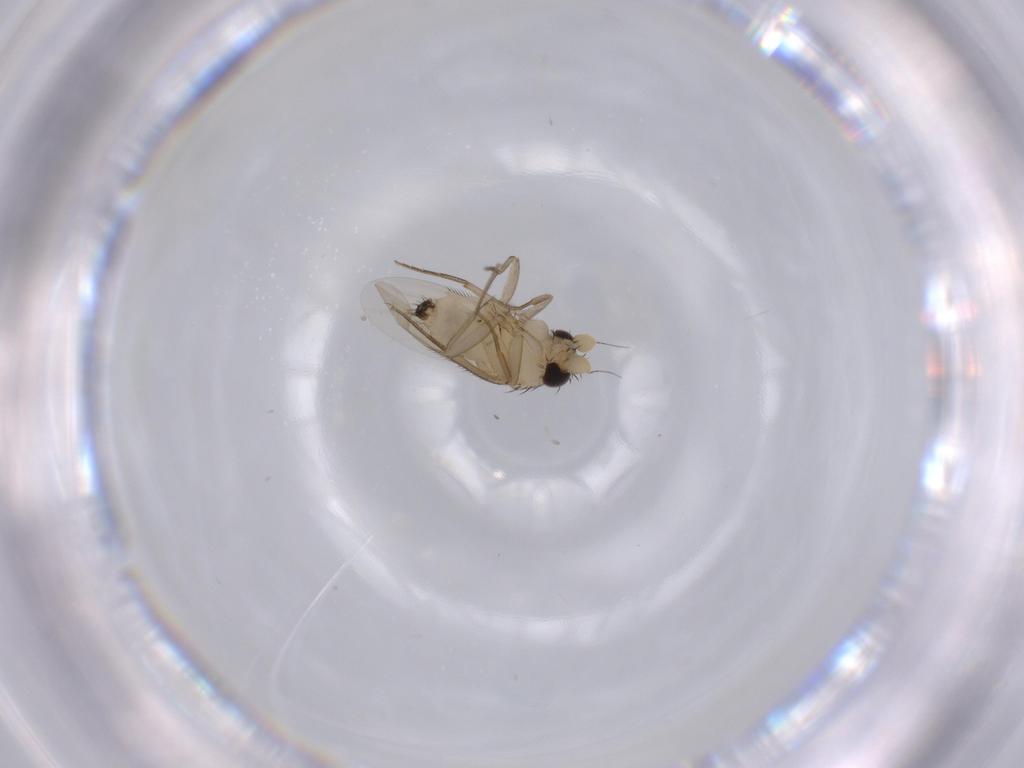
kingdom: Animalia
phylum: Arthropoda
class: Insecta
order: Diptera
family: Phoridae
